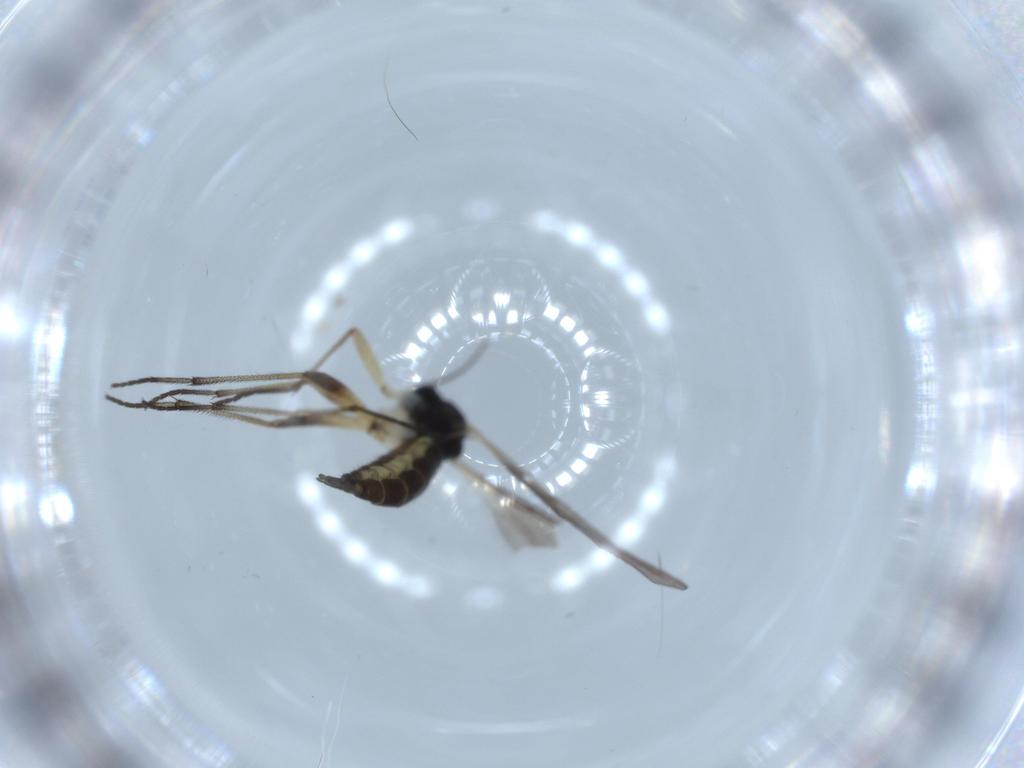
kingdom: Animalia
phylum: Arthropoda
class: Insecta
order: Diptera
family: Sciaridae
